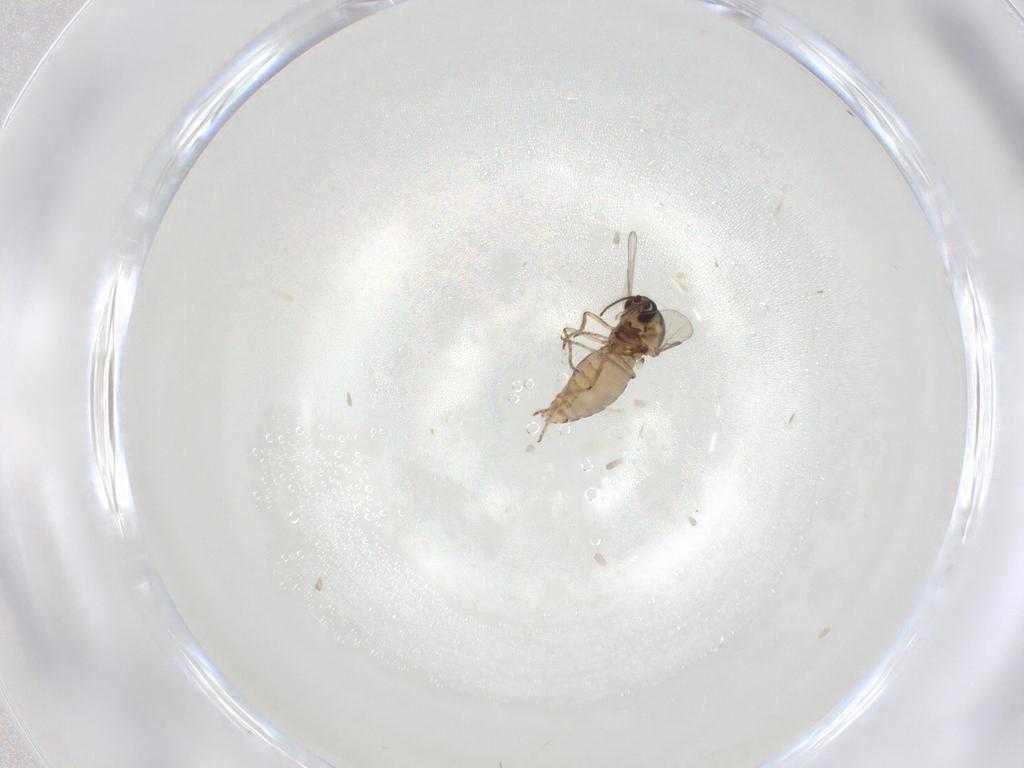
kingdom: Animalia
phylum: Arthropoda
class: Insecta
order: Diptera
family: Ceratopogonidae
